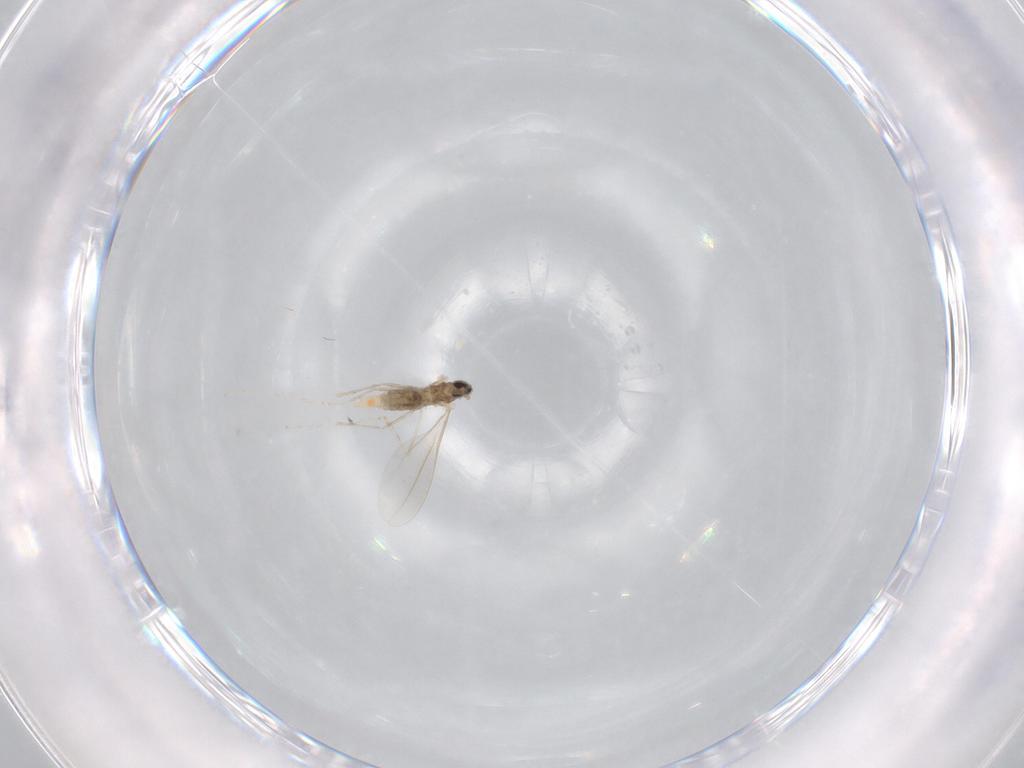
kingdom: Animalia
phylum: Arthropoda
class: Insecta
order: Diptera
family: Cecidomyiidae
